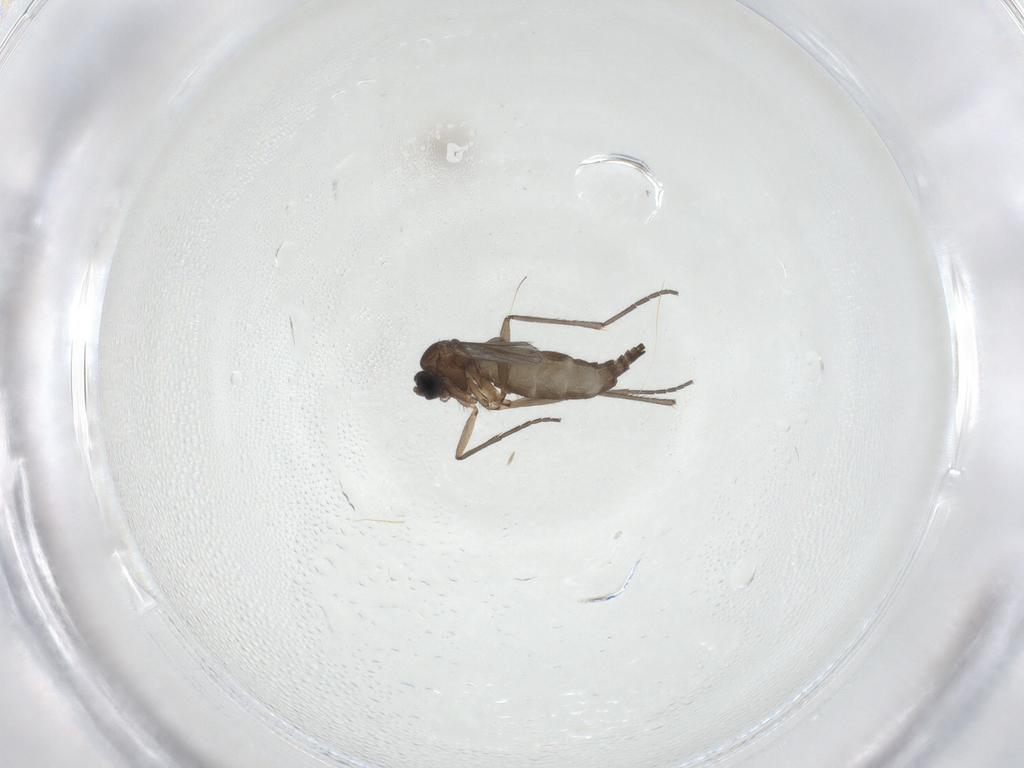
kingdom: Animalia
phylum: Arthropoda
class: Insecta
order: Diptera
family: Sciaridae
